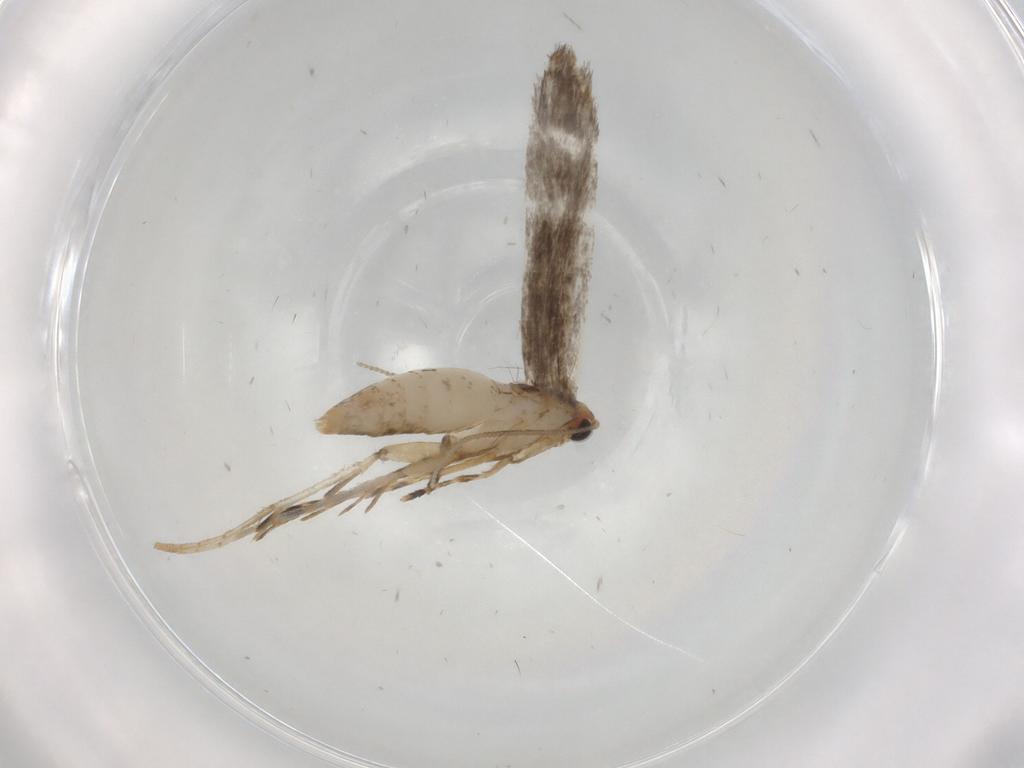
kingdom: Animalia
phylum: Arthropoda
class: Insecta
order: Lepidoptera
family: Tineidae
